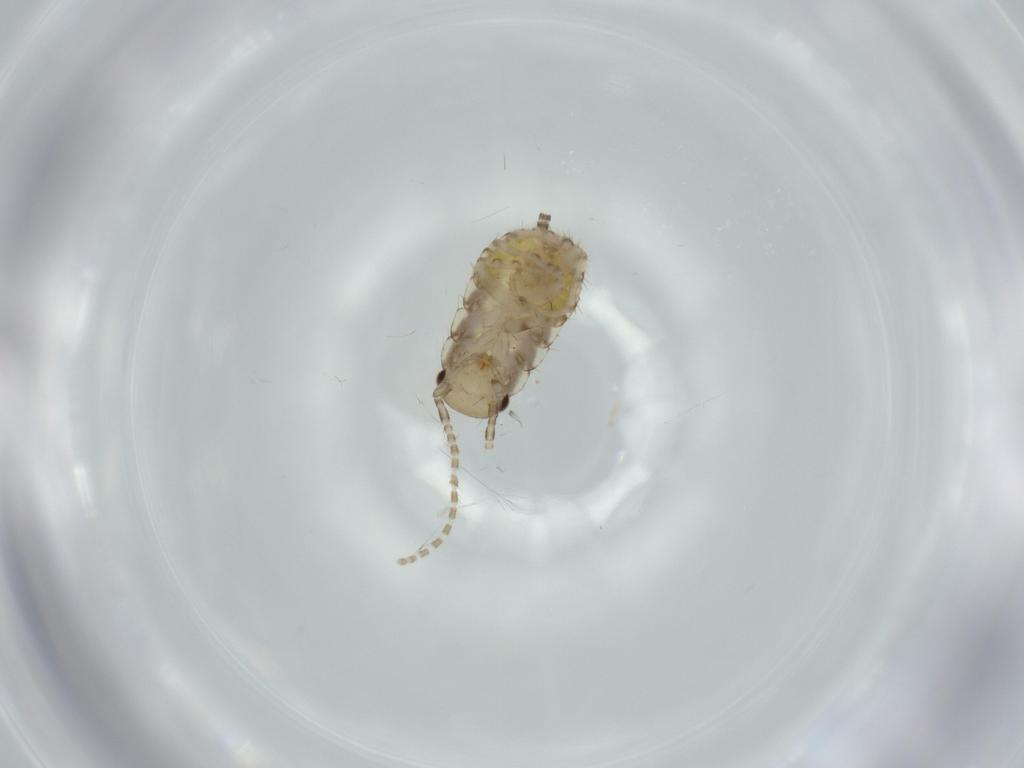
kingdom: Animalia
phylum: Arthropoda
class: Insecta
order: Blattodea
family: Ectobiidae
